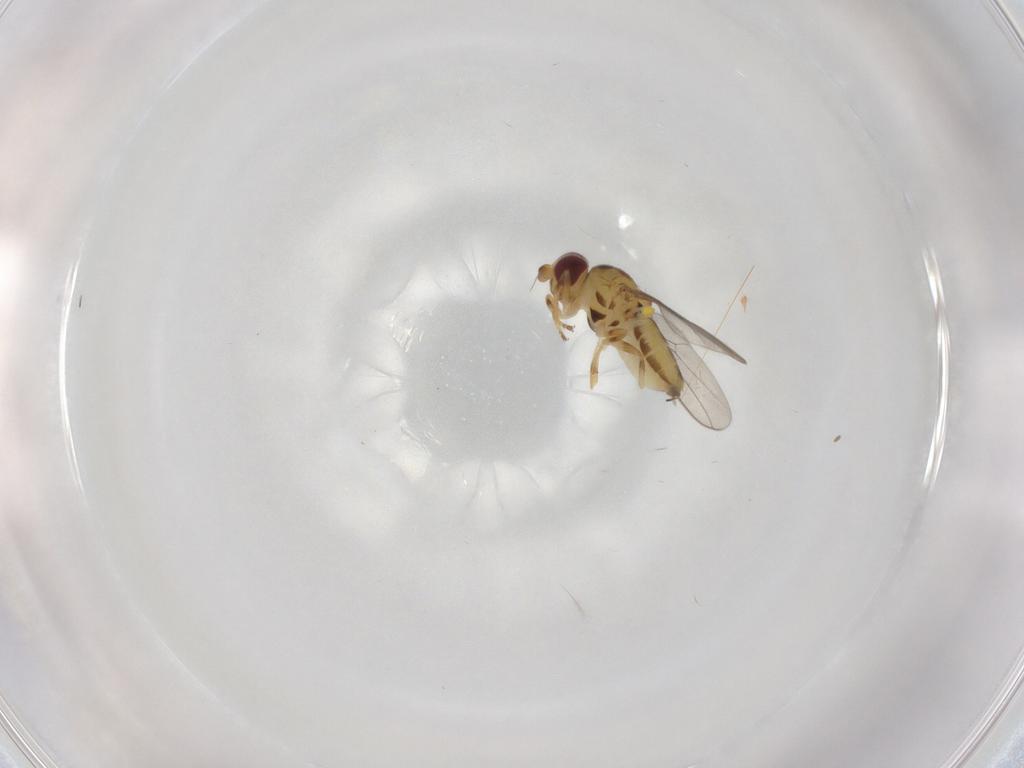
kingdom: Animalia
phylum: Arthropoda
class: Insecta
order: Diptera
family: Chloropidae
